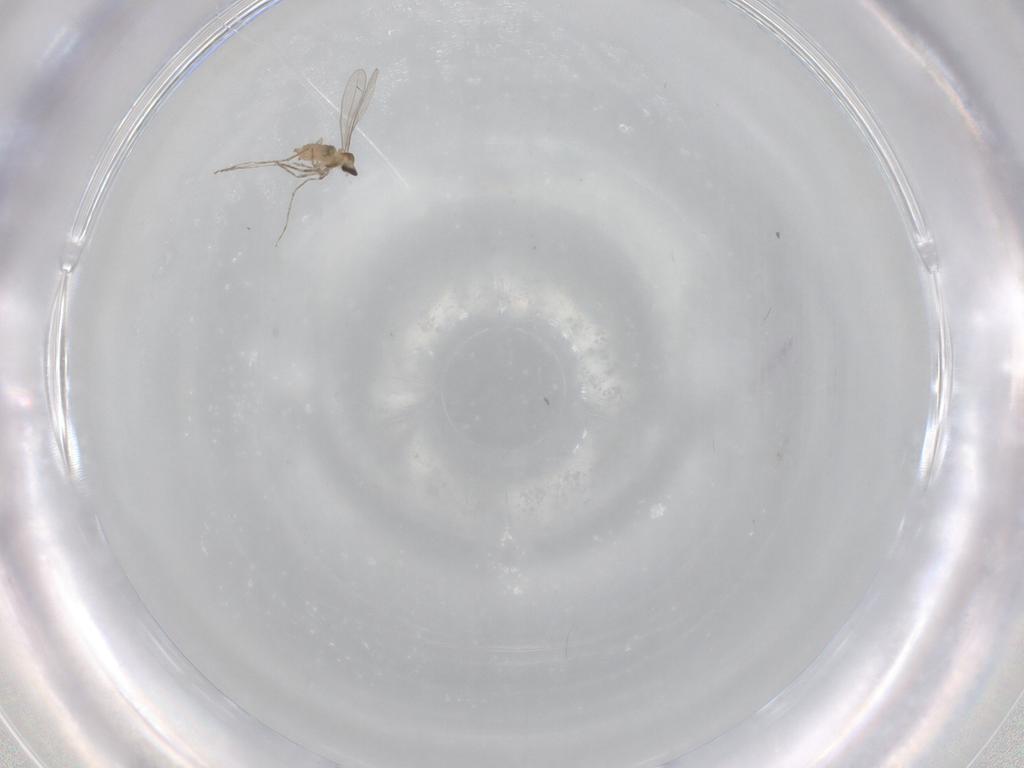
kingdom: Animalia
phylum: Arthropoda
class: Insecta
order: Diptera
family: Cecidomyiidae
